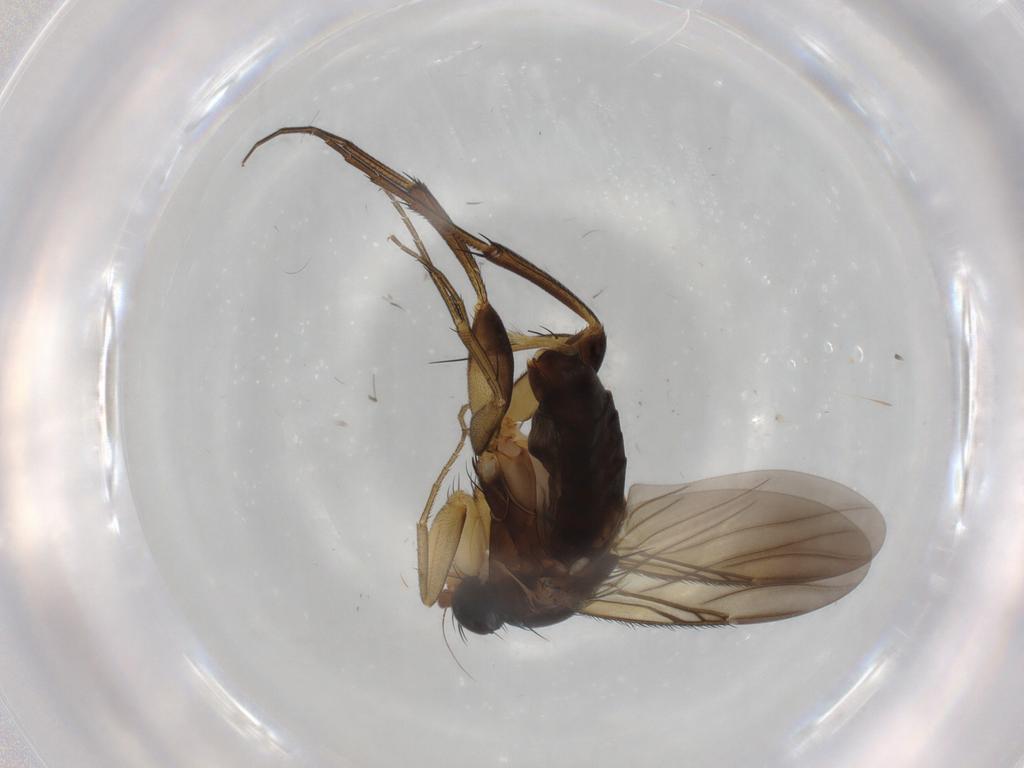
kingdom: Animalia
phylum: Arthropoda
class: Insecta
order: Diptera
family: Phoridae
